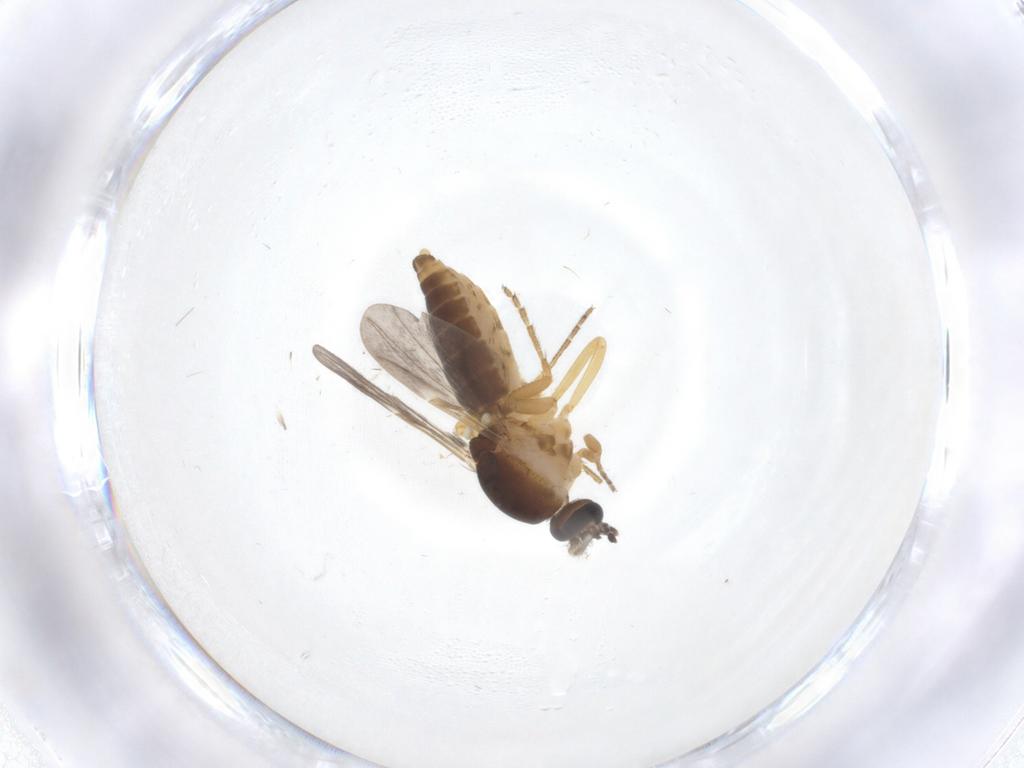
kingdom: Animalia
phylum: Arthropoda
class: Insecta
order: Diptera
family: Ceratopogonidae
